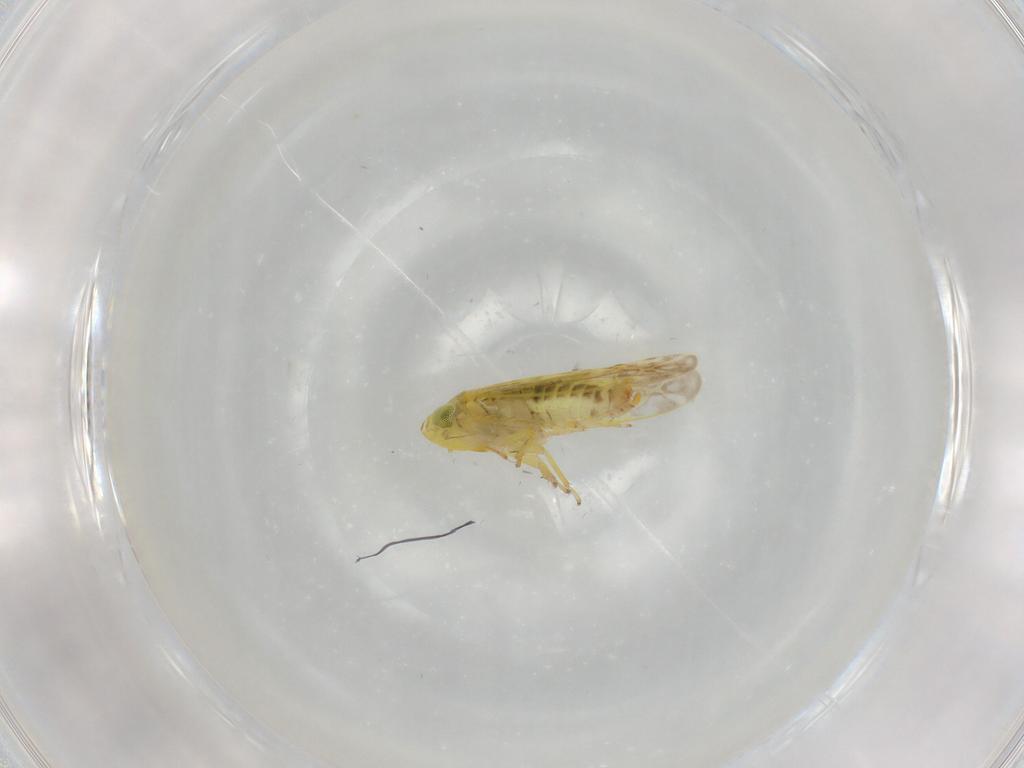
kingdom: Animalia
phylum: Arthropoda
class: Insecta
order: Hemiptera
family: Cicadellidae
